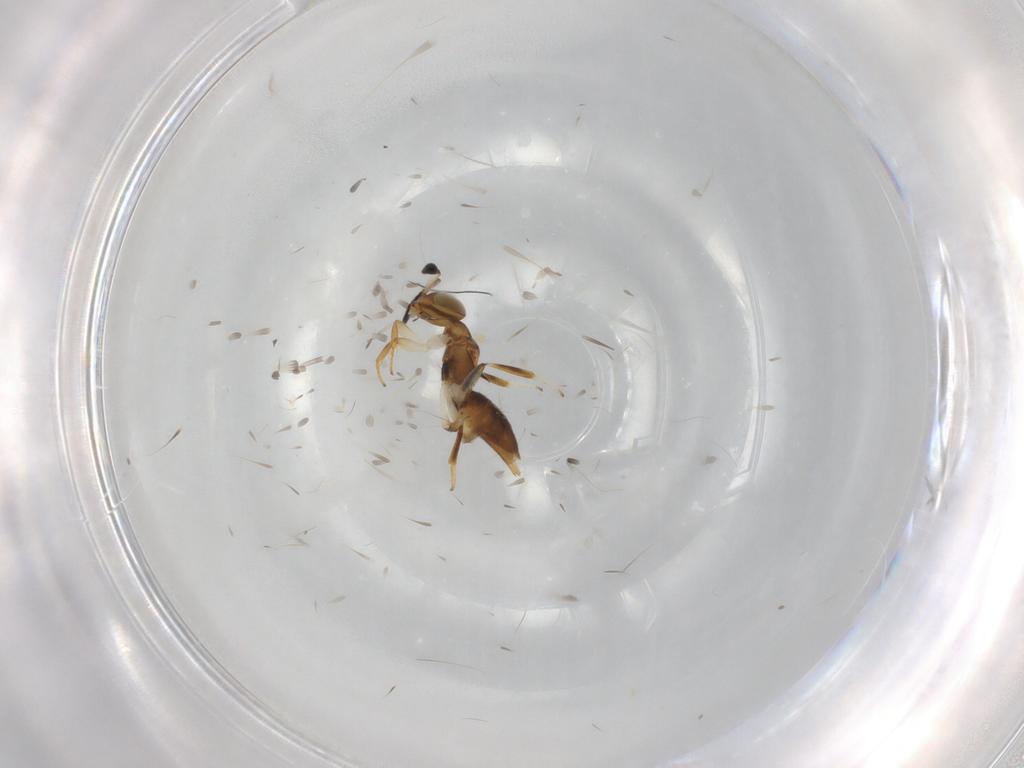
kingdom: Animalia
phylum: Arthropoda
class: Insecta
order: Hymenoptera
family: Encyrtidae
